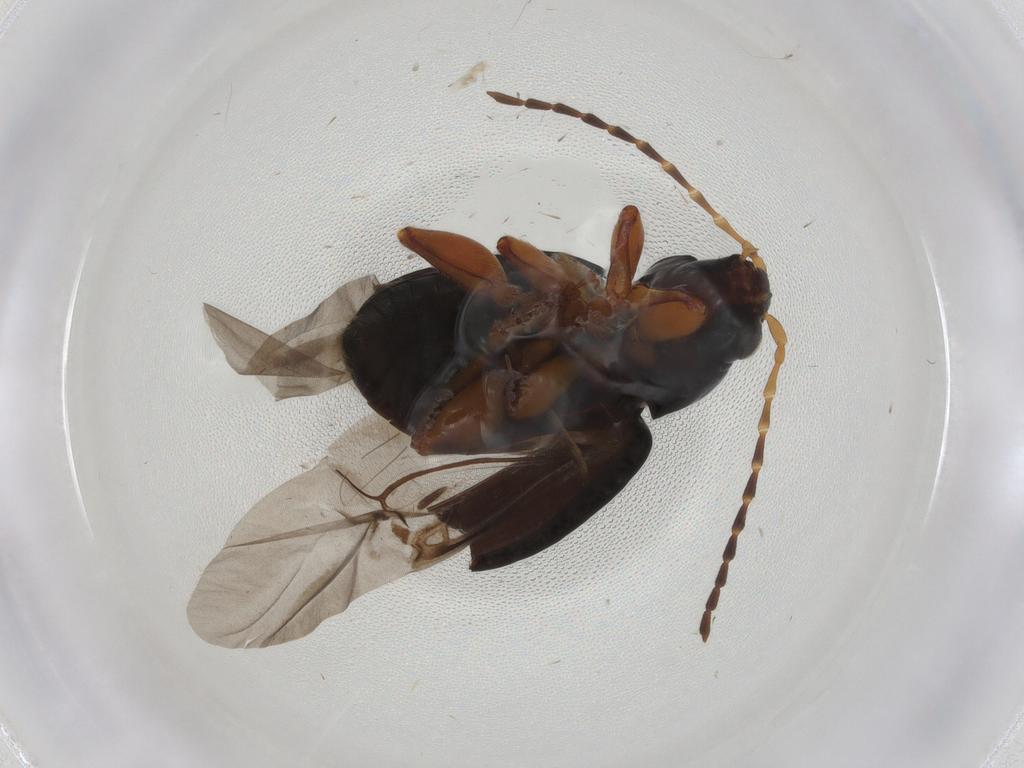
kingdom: Animalia
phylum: Arthropoda
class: Insecta
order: Coleoptera
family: Ptilodactylidae
